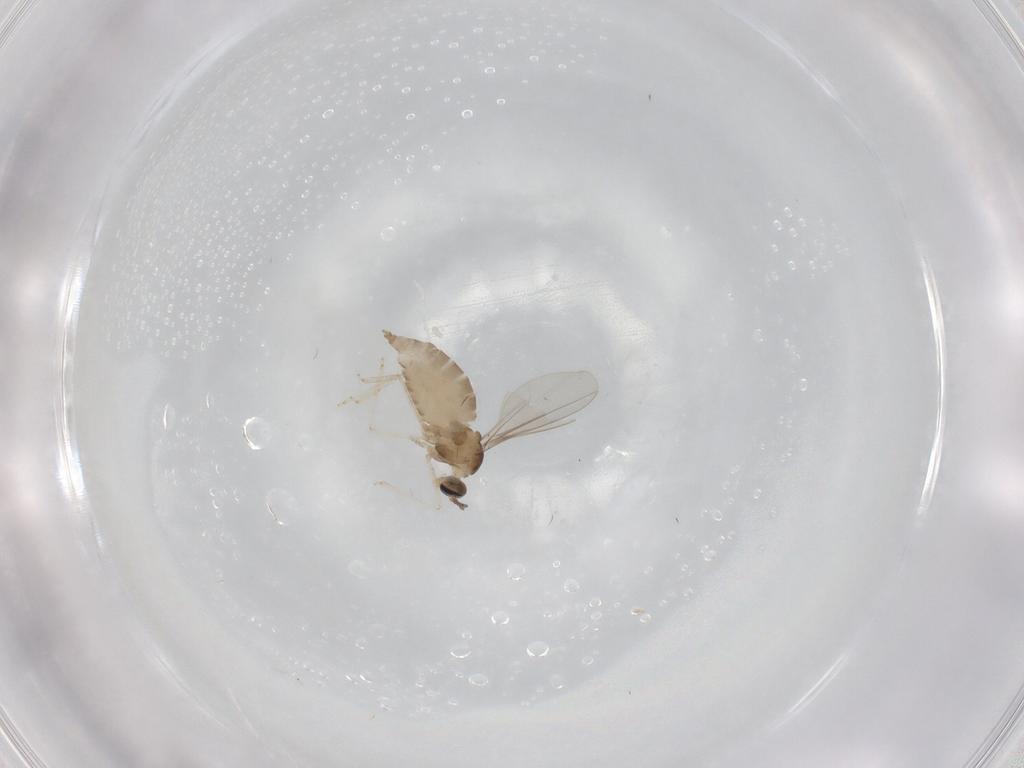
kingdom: Animalia
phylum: Arthropoda
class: Insecta
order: Diptera
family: Cecidomyiidae
